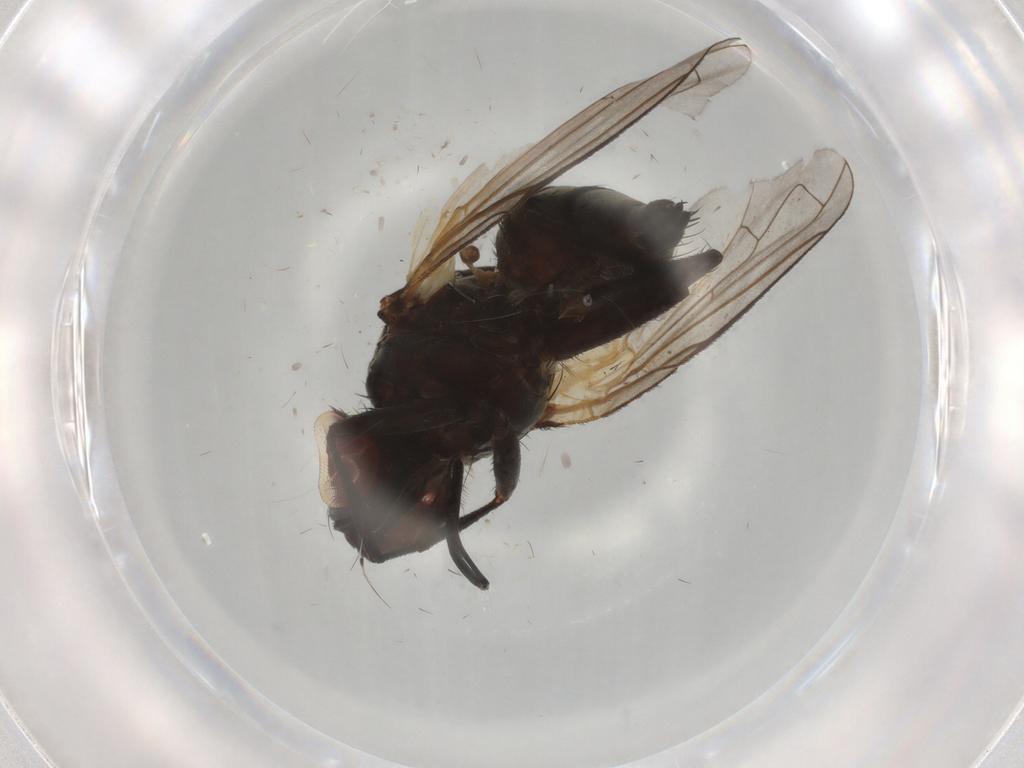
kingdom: Animalia
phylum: Arthropoda
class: Insecta
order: Diptera
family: Tachinidae
